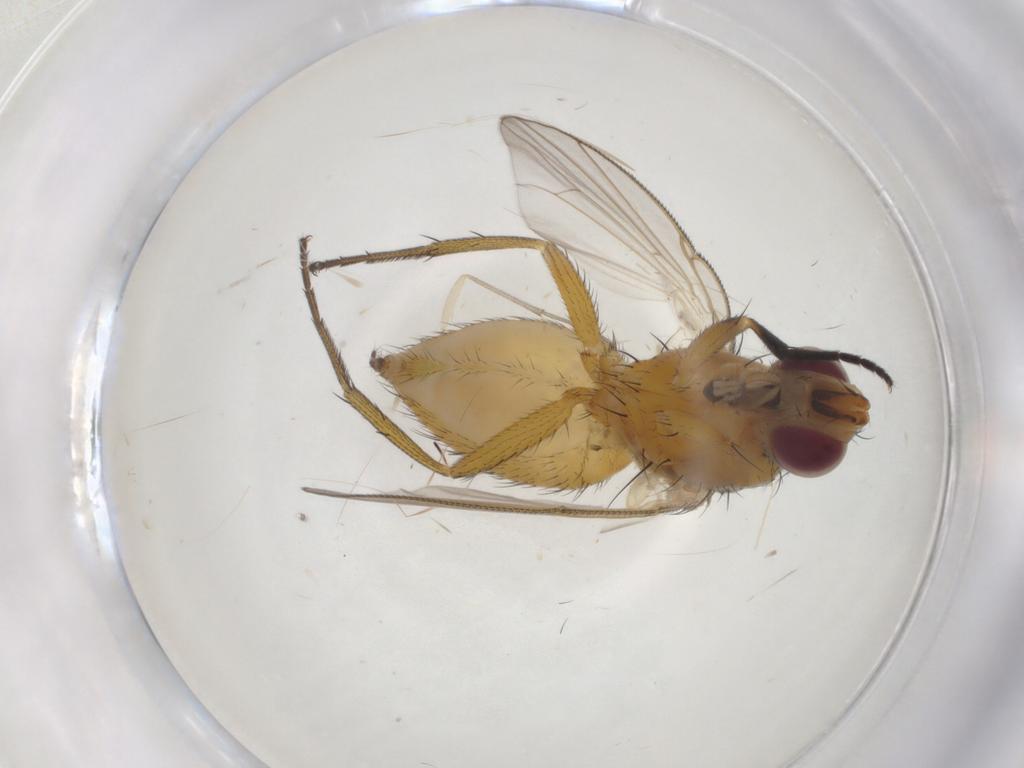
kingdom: Animalia
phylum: Arthropoda
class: Insecta
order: Diptera
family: Muscidae
